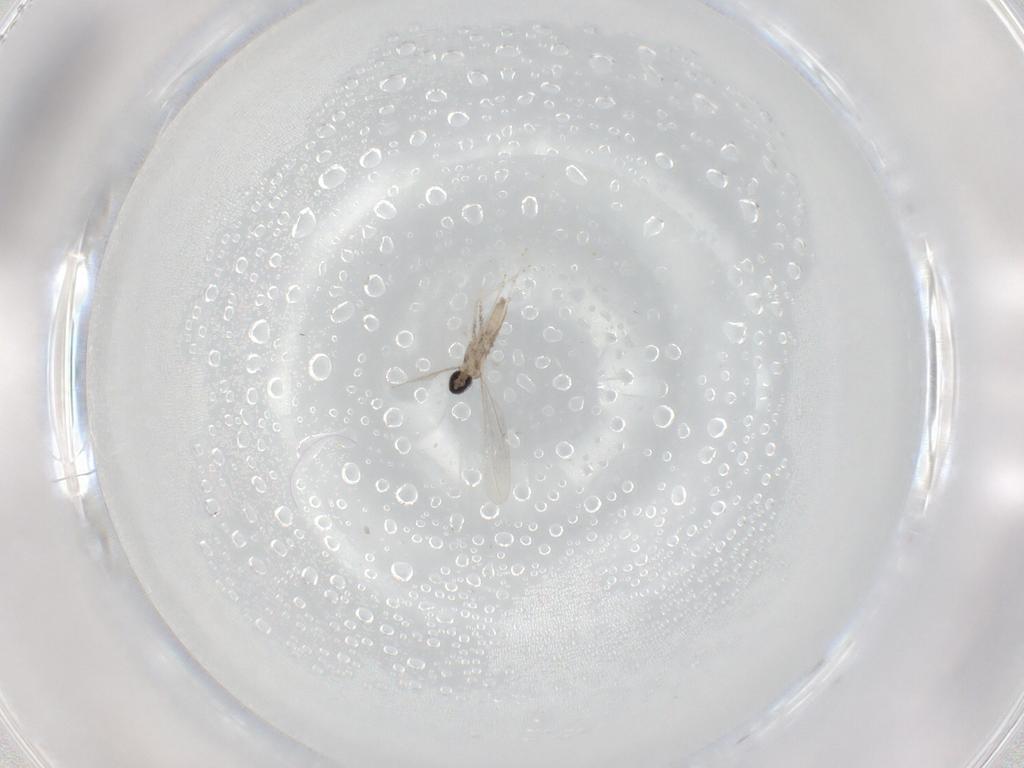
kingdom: Animalia
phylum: Arthropoda
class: Insecta
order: Diptera
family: Cecidomyiidae
